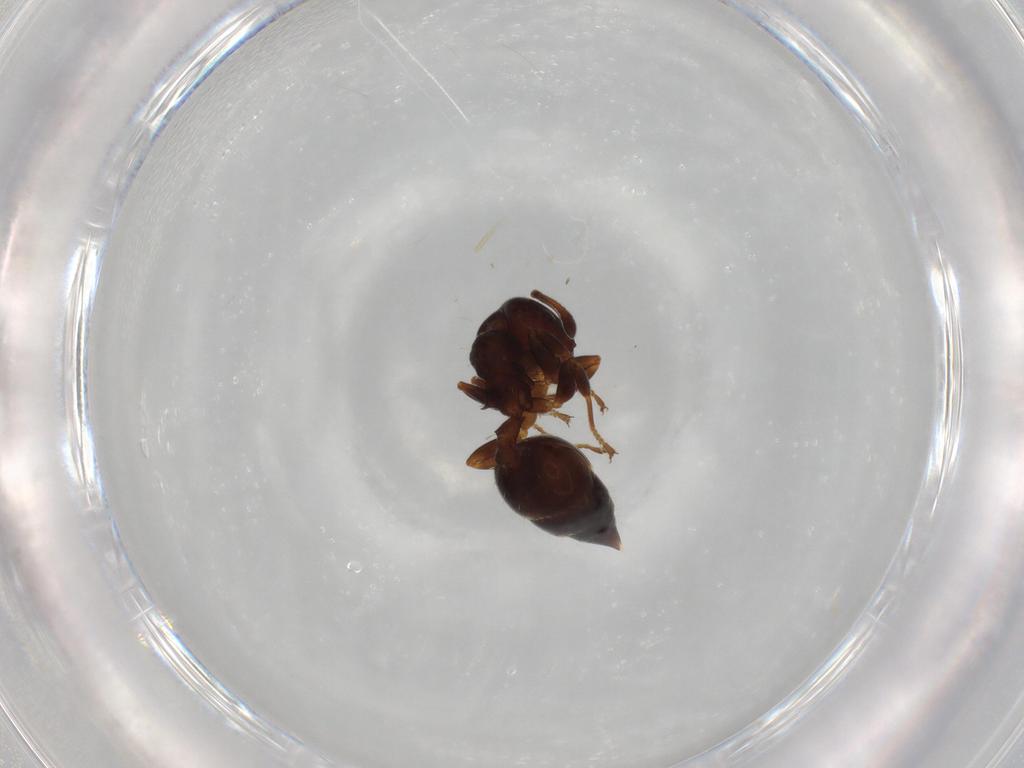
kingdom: Animalia
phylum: Arthropoda
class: Insecta
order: Hymenoptera
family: Formicidae
